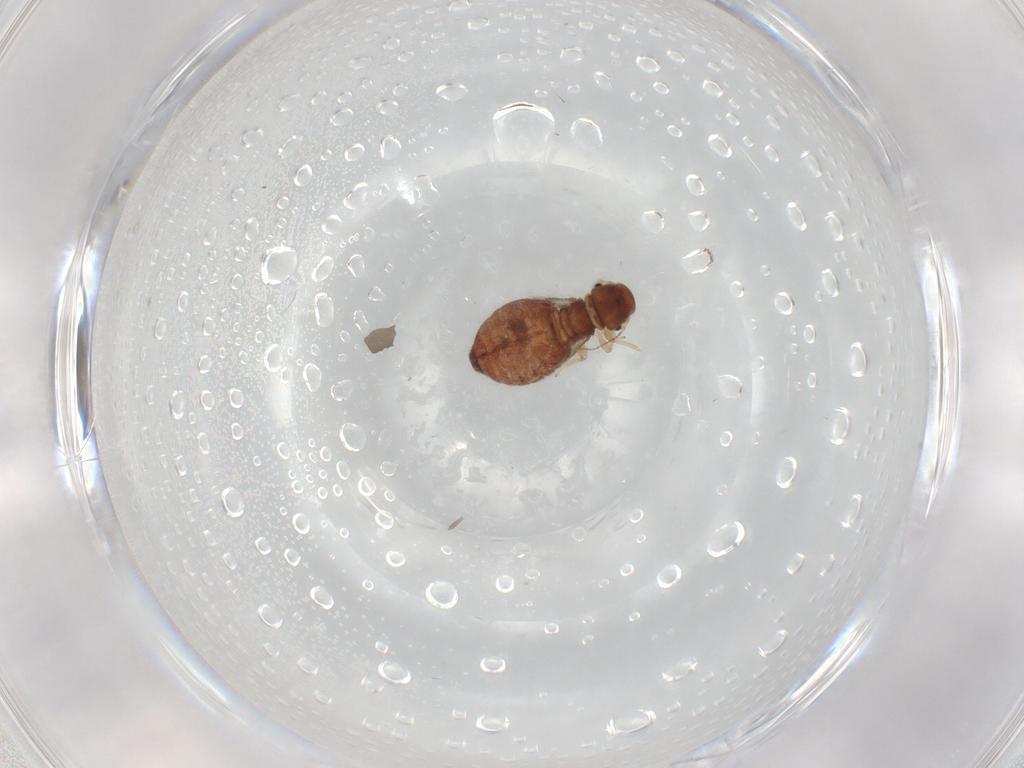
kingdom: Animalia
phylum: Arthropoda
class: Insecta
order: Psocodea
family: Archipsocidae
